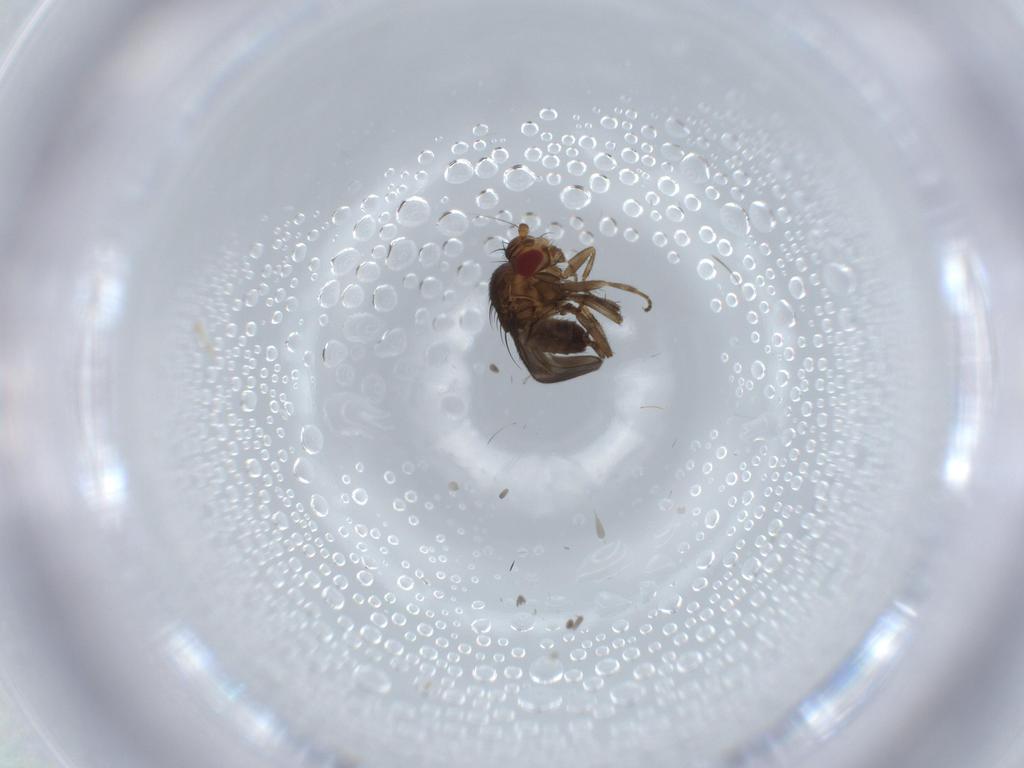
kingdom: Animalia
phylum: Arthropoda
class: Insecta
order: Diptera
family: Sphaeroceridae
